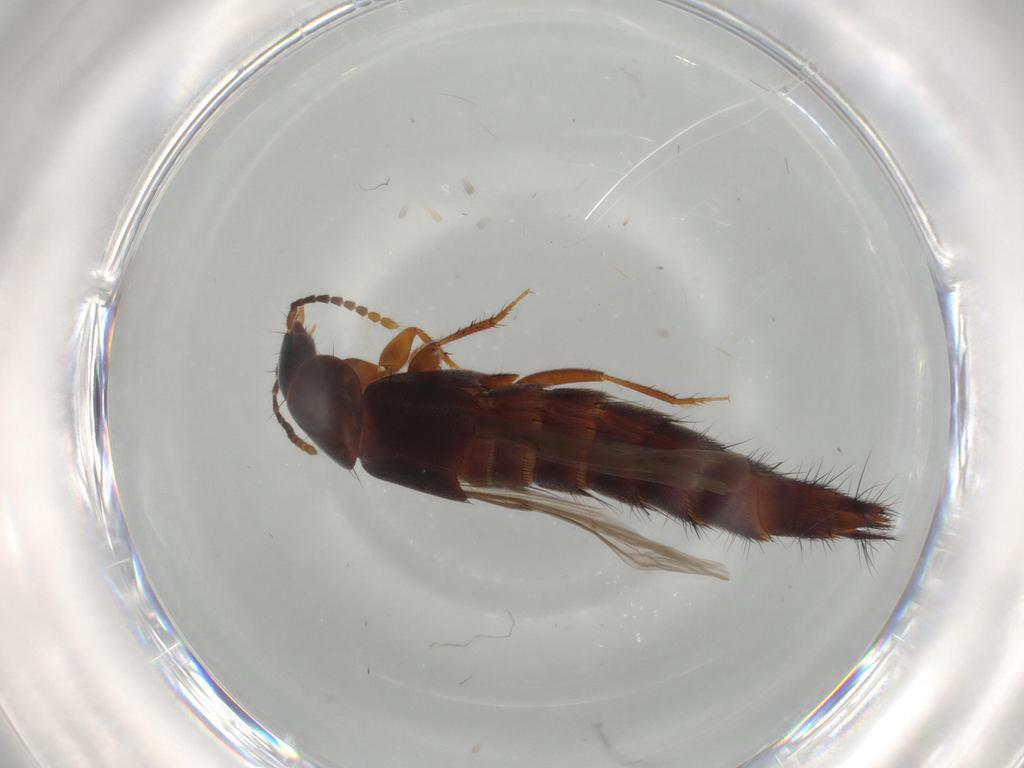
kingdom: Animalia
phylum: Arthropoda
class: Insecta
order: Coleoptera
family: Staphylinidae
